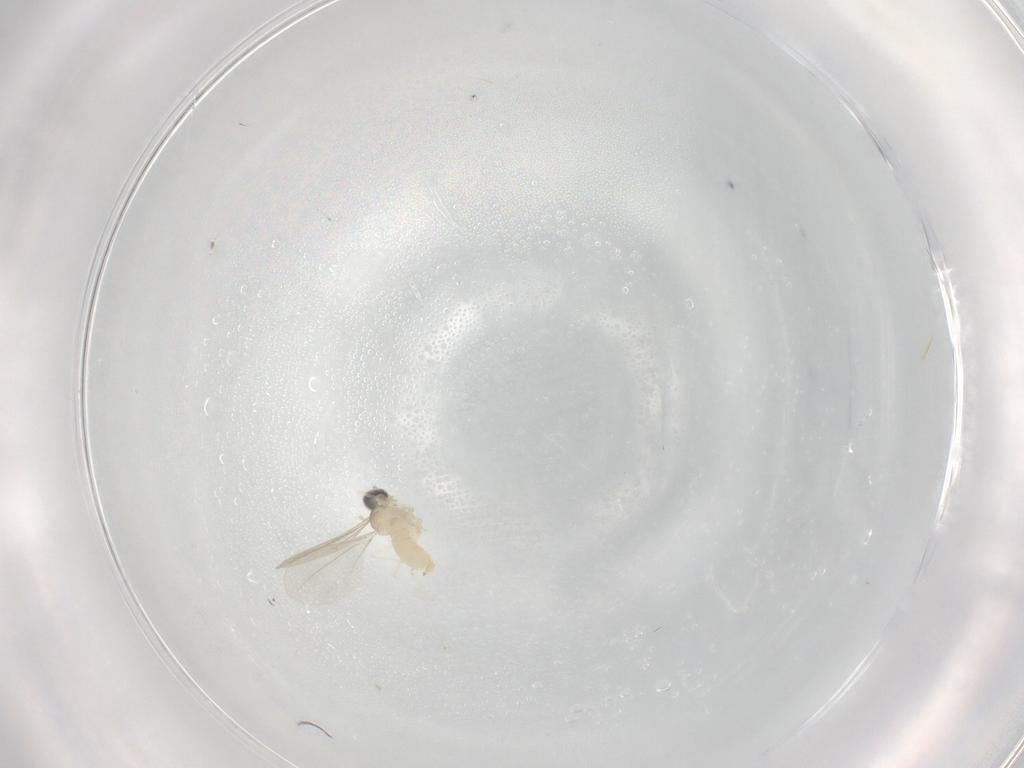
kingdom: Animalia
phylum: Arthropoda
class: Insecta
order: Diptera
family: Cecidomyiidae
